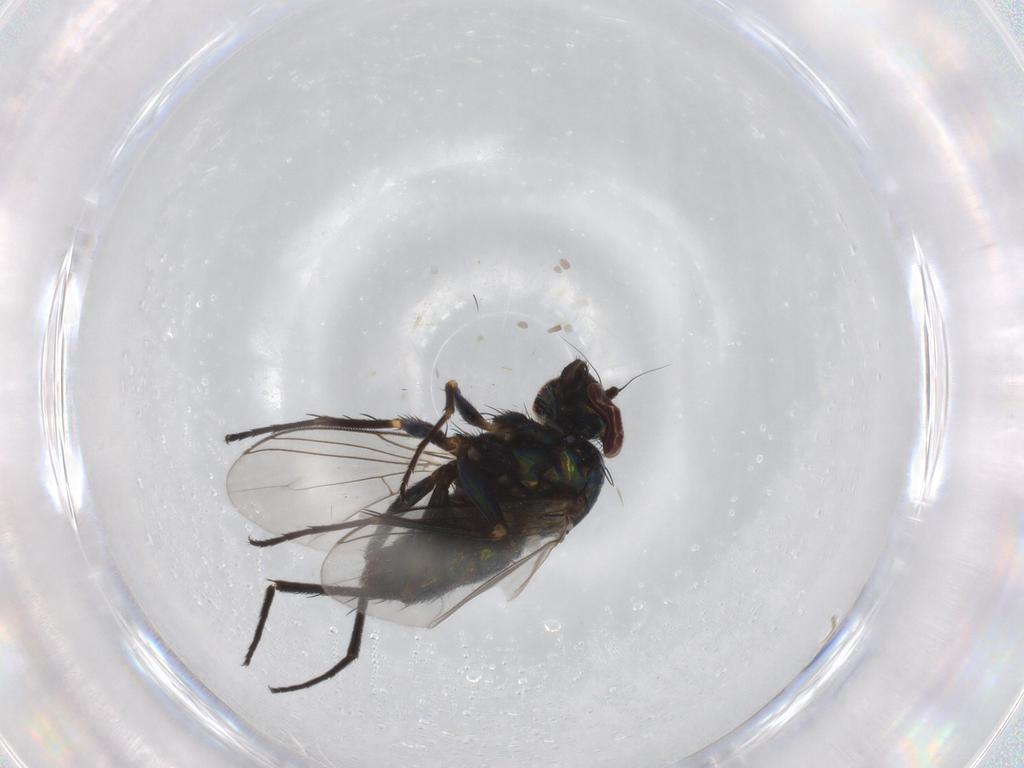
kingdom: Animalia
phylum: Arthropoda
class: Insecta
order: Diptera
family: Dolichopodidae
